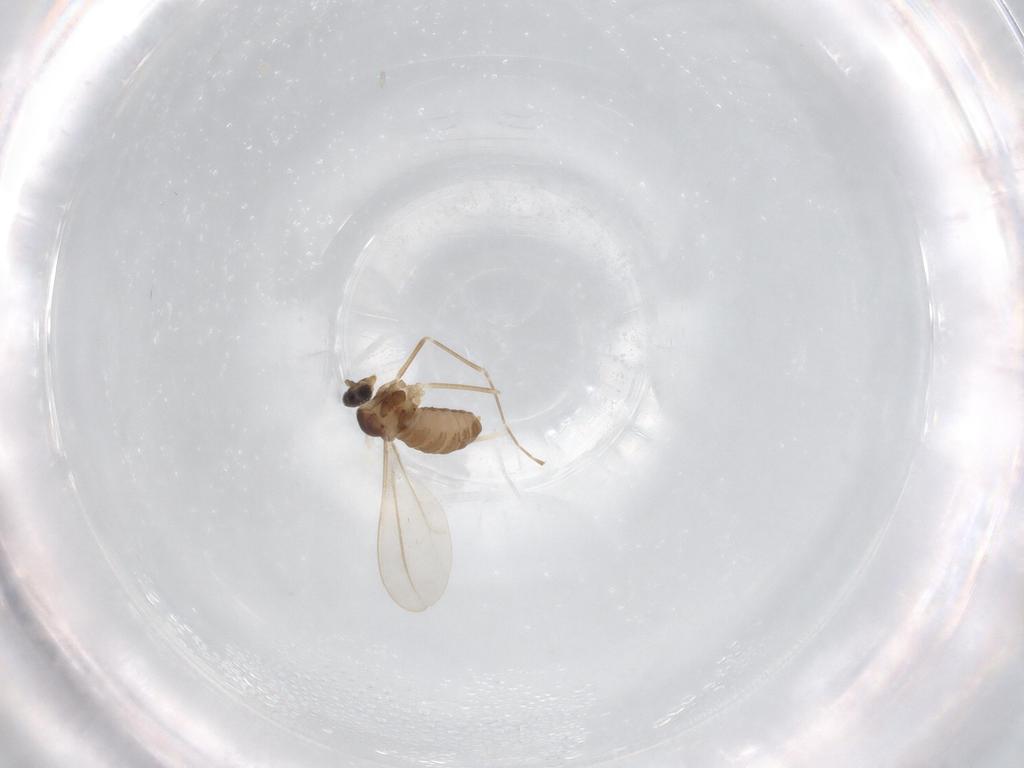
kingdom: Animalia
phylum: Arthropoda
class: Insecta
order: Diptera
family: Cecidomyiidae
